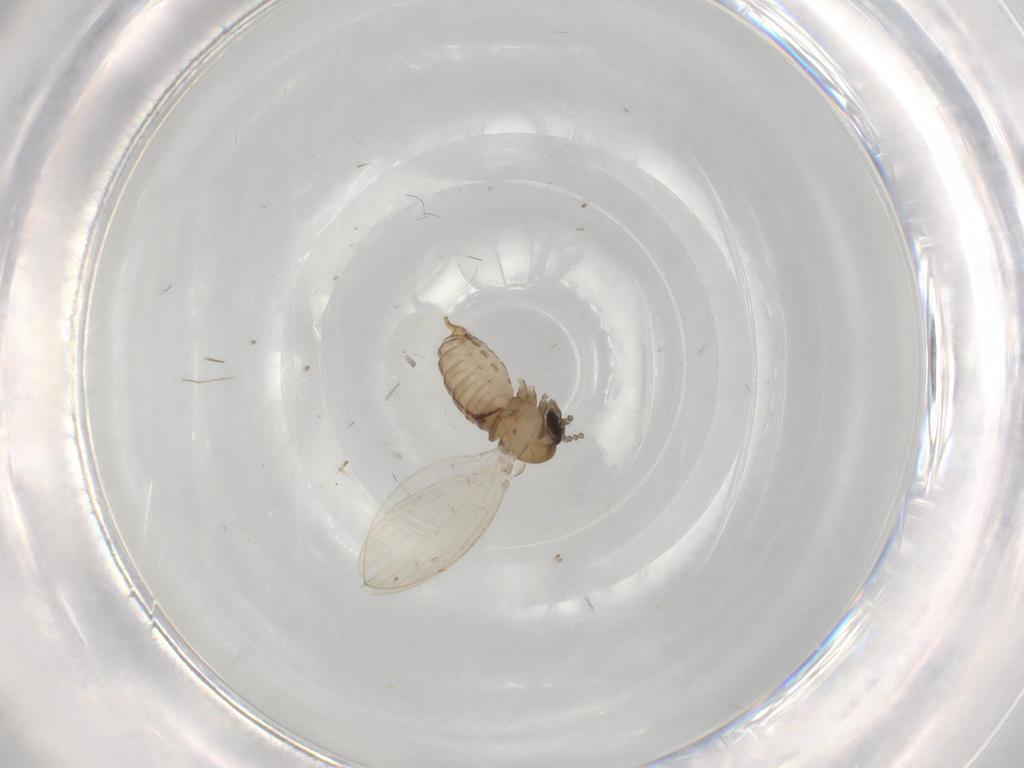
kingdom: Animalia
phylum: Arthropoda
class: Insecta
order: Diptera
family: Psychodidae
